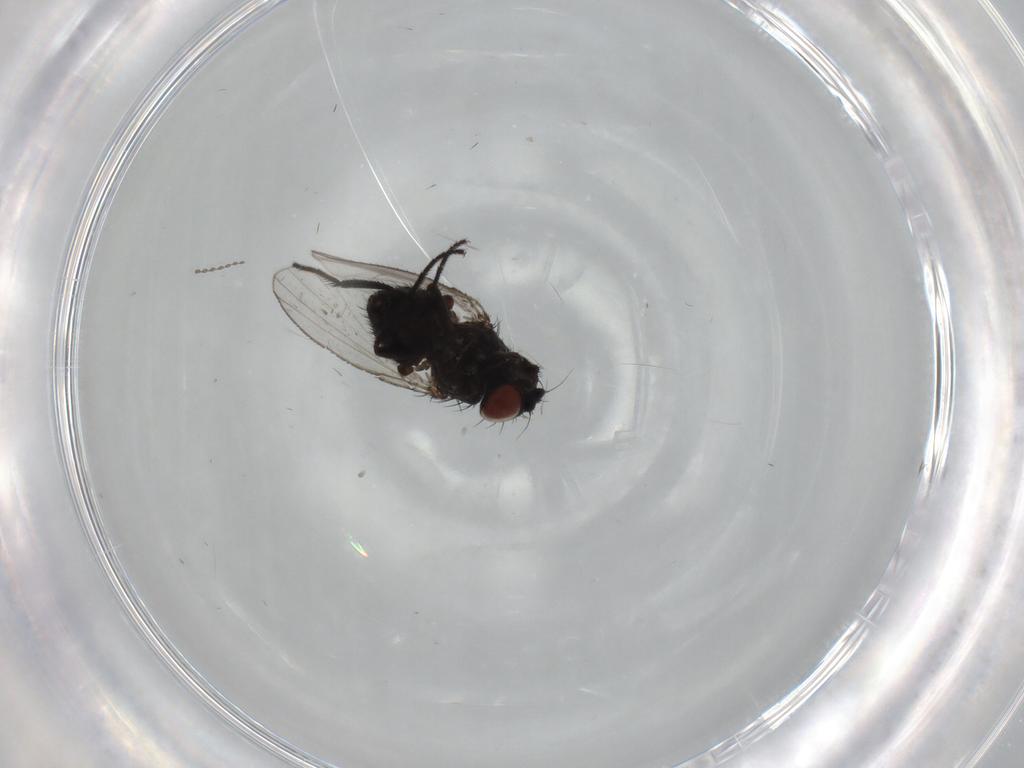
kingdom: Animalia
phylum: Arthropoda
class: Insecta
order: Diptera
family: Milichiidae
